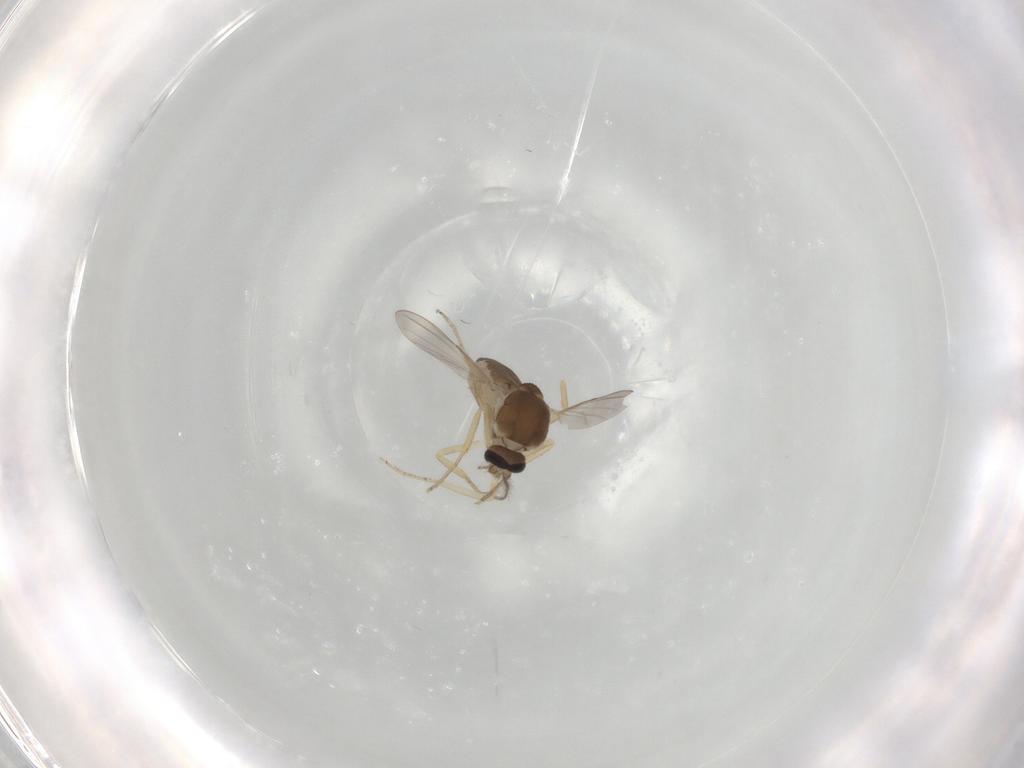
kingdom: Animalia
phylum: Arthropoda
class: Insecta
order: Diptera
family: Ceratopogonidae
